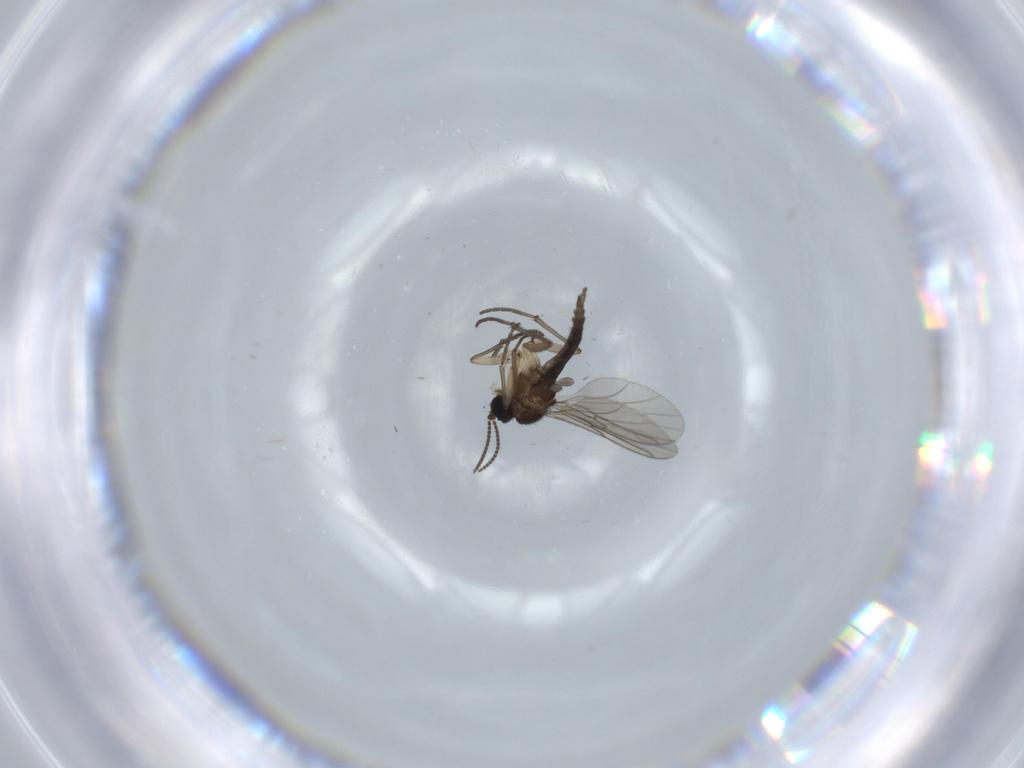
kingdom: Animalia
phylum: Arthropoda
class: Insecta
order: Diptera
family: Sciaridae
